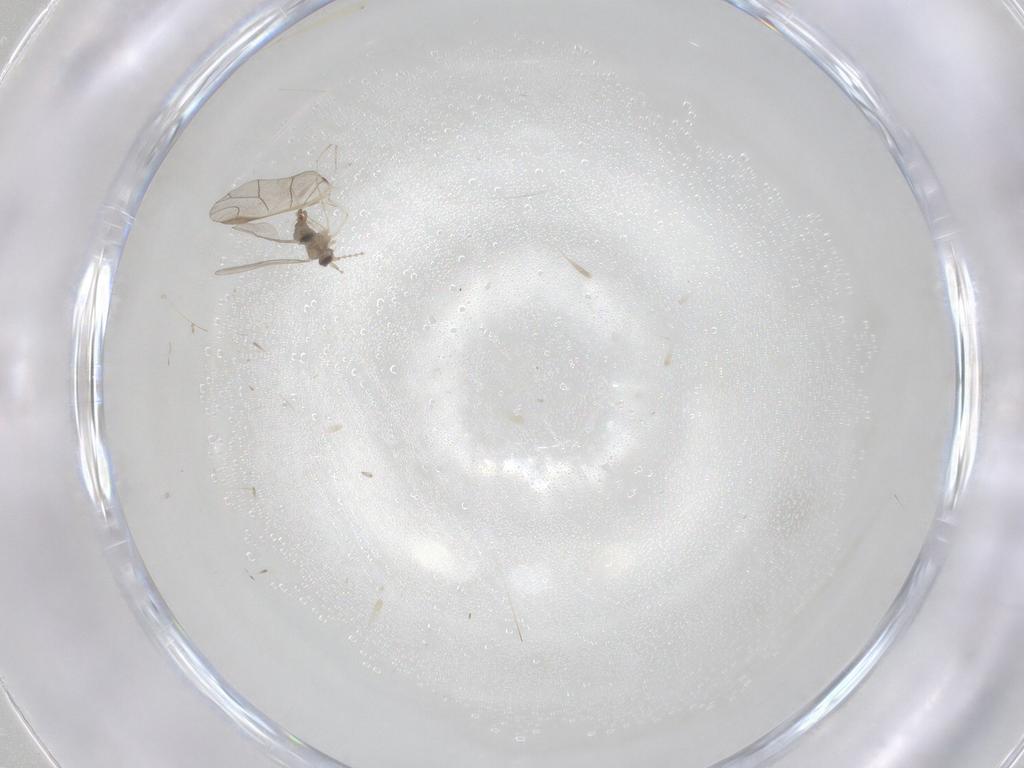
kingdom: Animalia
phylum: Arthropoda
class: Insecta
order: Diptera
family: Cecidomyiidae
